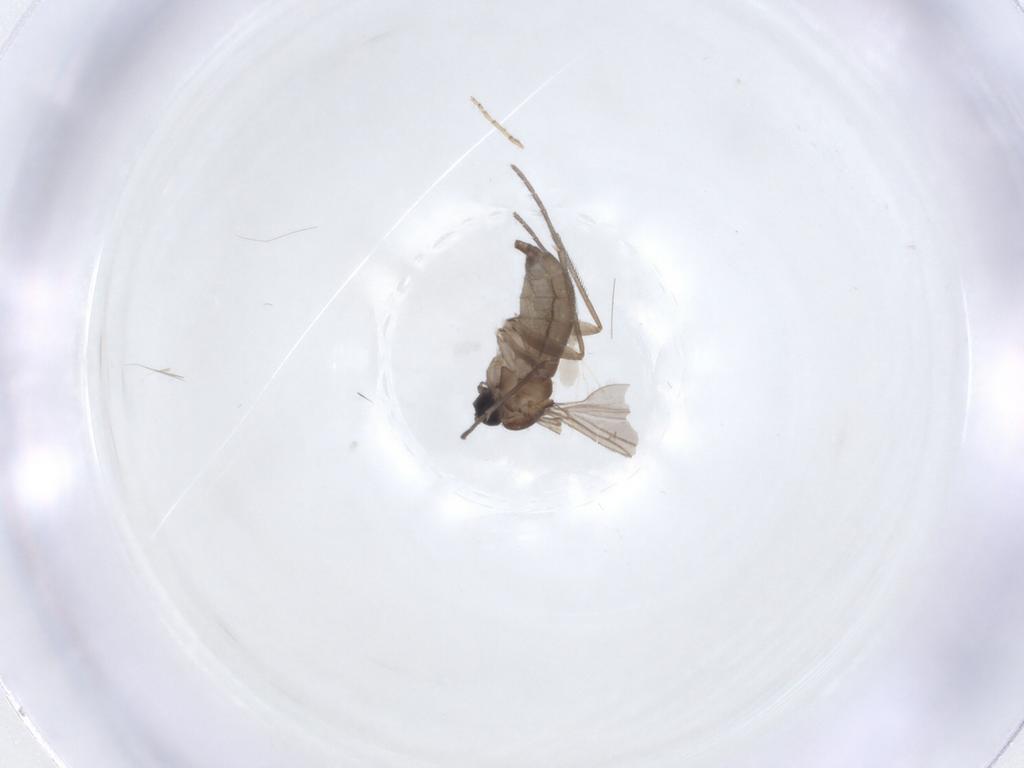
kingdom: Animalia
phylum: Arthropoda
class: Insecta
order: Diptera
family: Sciaridae
